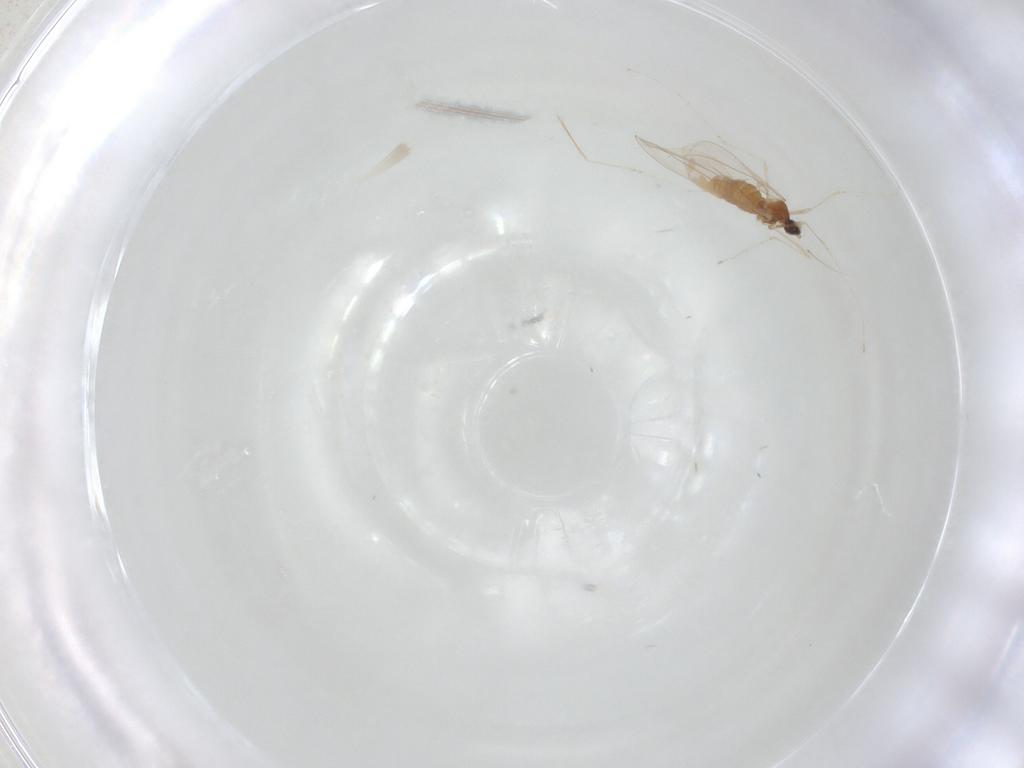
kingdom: Animalia
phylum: Arthropoda
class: Insecta
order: Diptera
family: Cecidomyiidae
